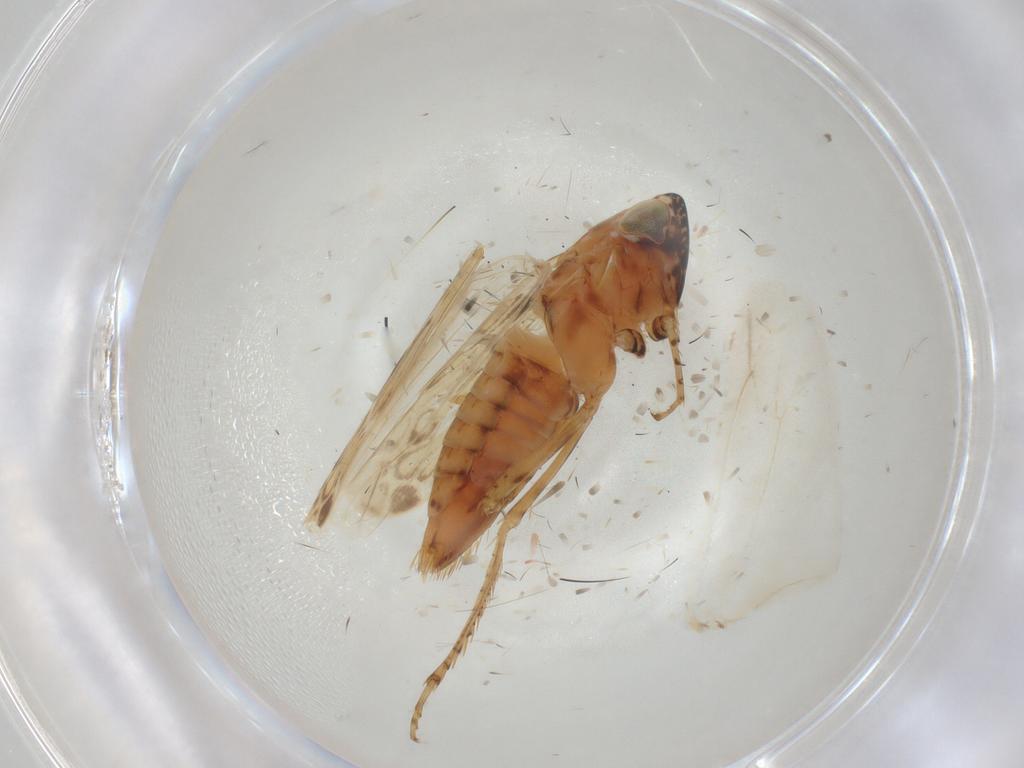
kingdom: Animalia
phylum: Arthropoda
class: Insecta
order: Hemiptera
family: Cicadellidae
